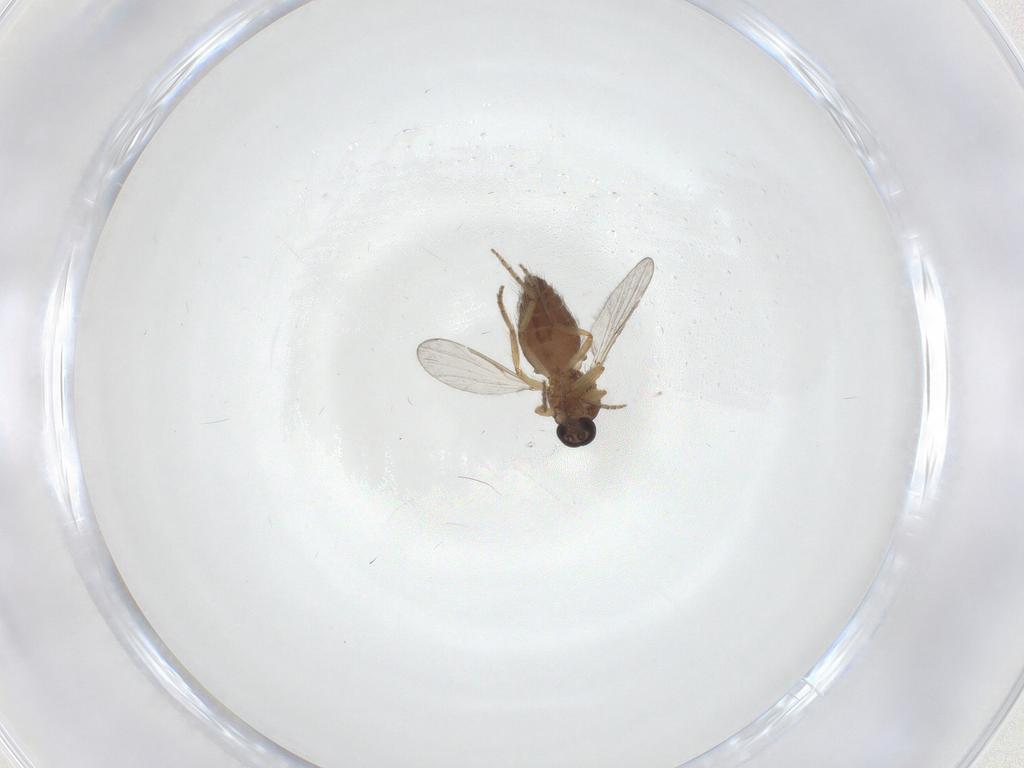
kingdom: Animalia
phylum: Arthropoda
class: Insecta
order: Diptera
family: Ceratopogonidae
